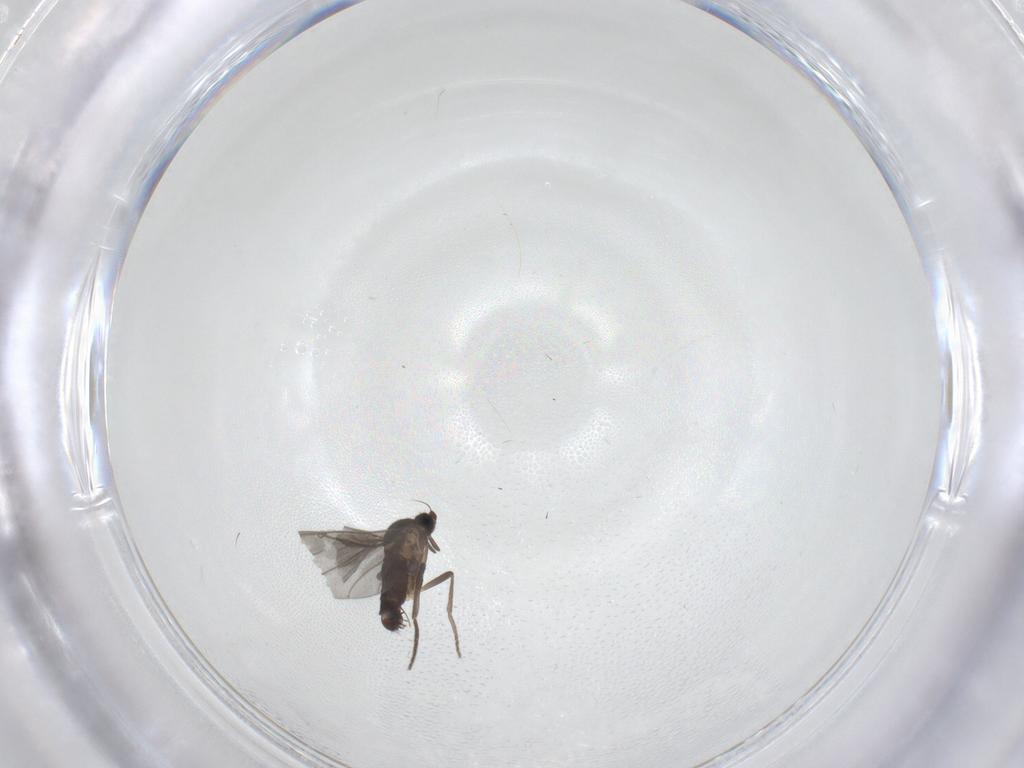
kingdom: Animalia
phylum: Arthropoda
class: Insecta
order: Diptera
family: Phoridae
